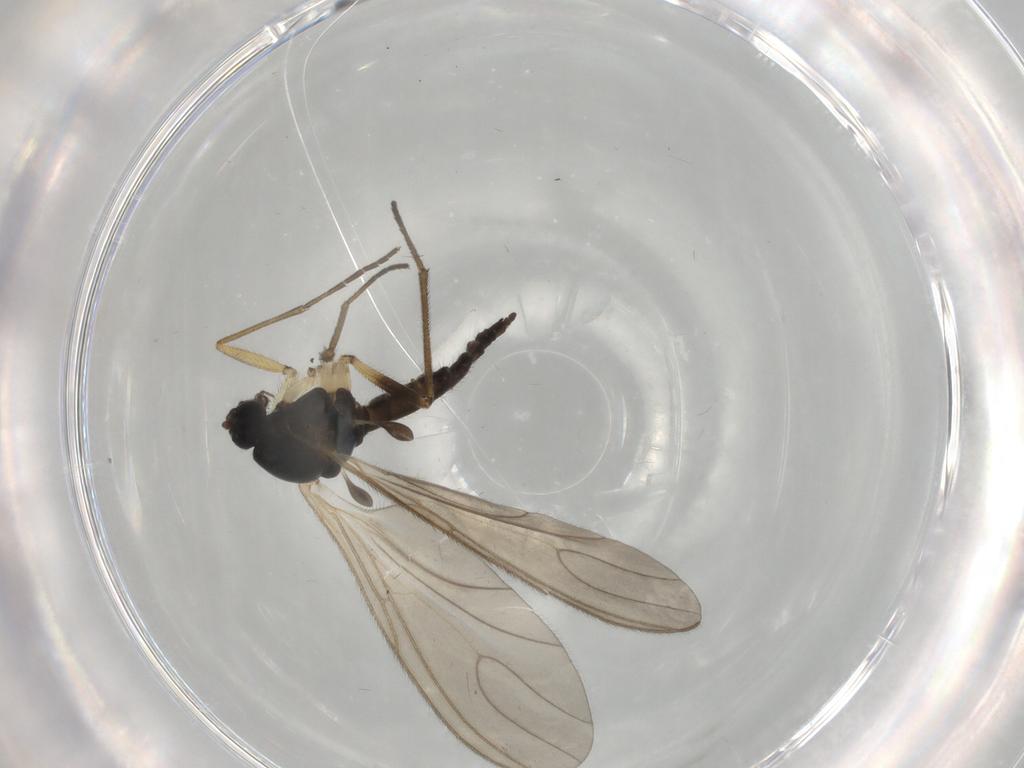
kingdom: Animalia
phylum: Arthropoda
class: Insecta
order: Diptera
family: Sciaridae
